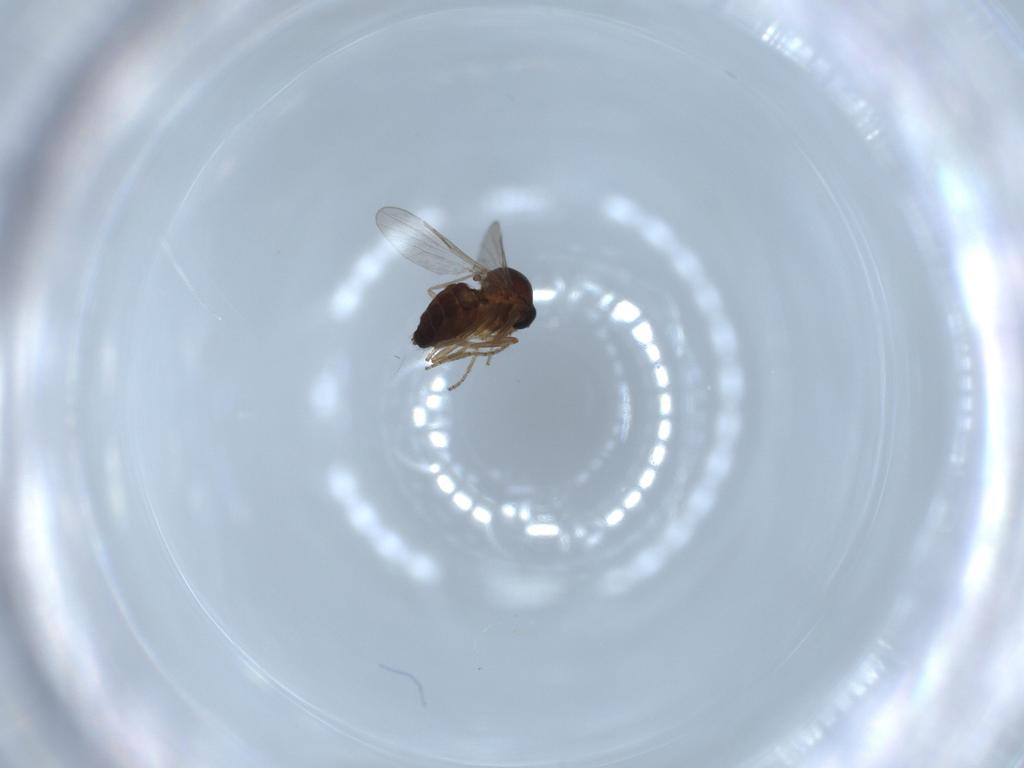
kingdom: Animalia
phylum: Arthropoda
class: Insecta
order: Diptera
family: Ceratopogonidae
